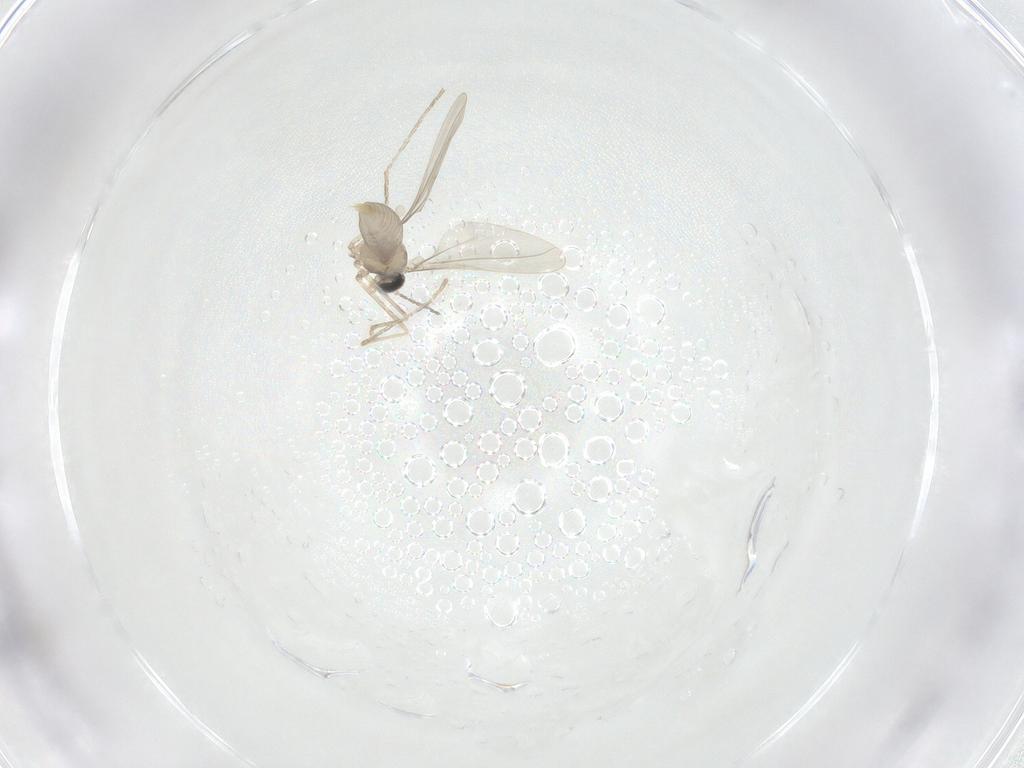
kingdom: Animalia
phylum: Arthropoda
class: Insecta
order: Diptera
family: Cecidomyiidae
